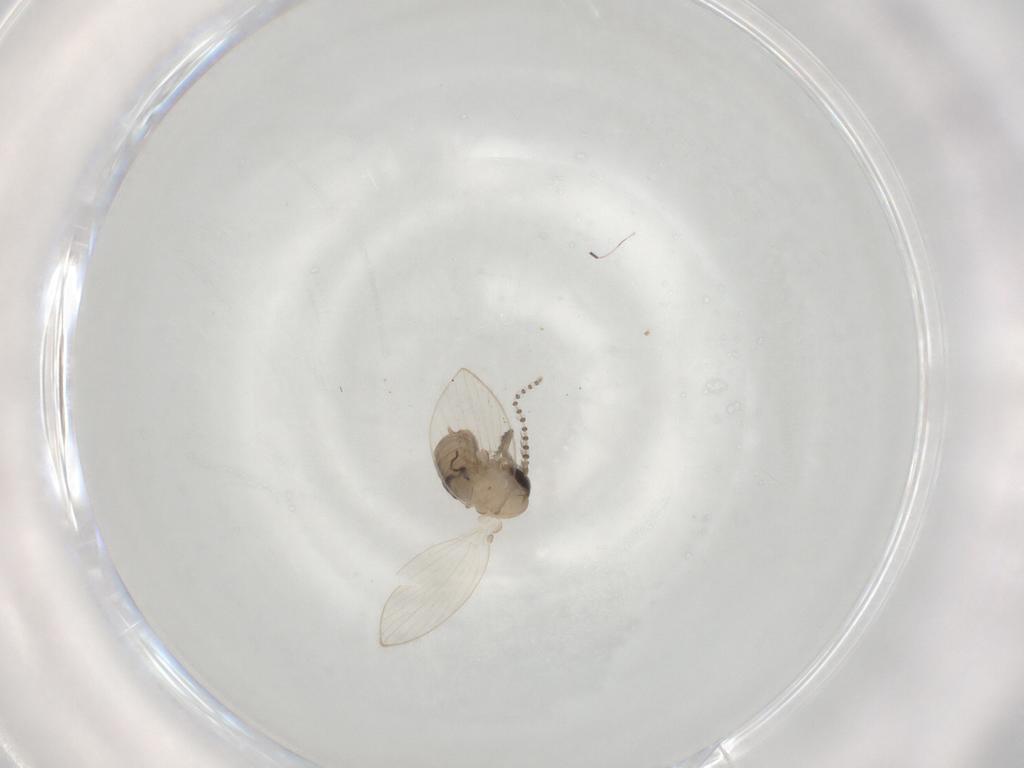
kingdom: Animalia
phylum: Arthropoda
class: Insecta
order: Diptera
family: Psychodidae
